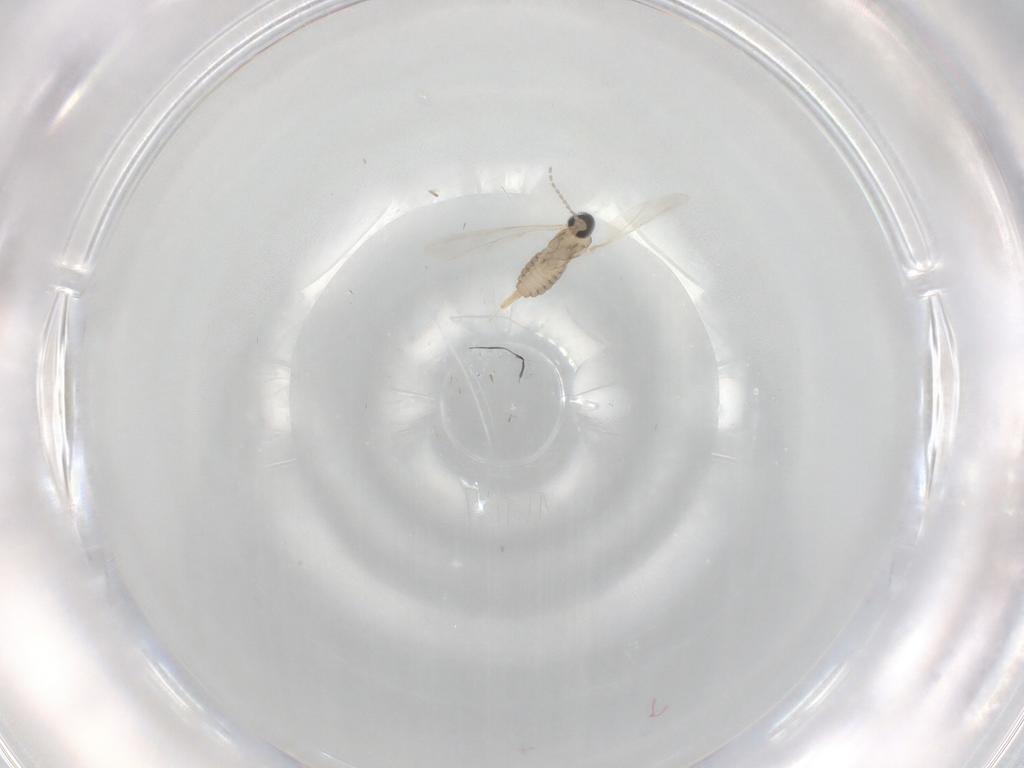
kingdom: Animalia
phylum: Arthropoda
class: Insecta
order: Diptera
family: Cecidomyiidae
